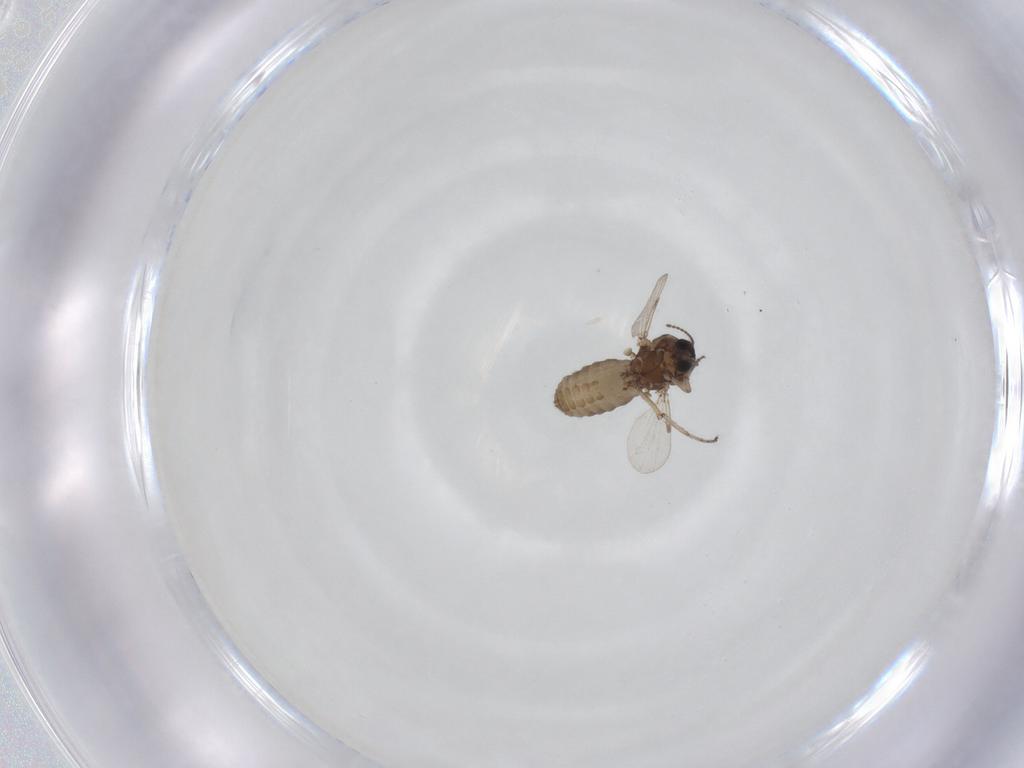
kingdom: Animalia
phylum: Arthropoda
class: Insecta
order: Diptera
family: Ceratopogonidae
